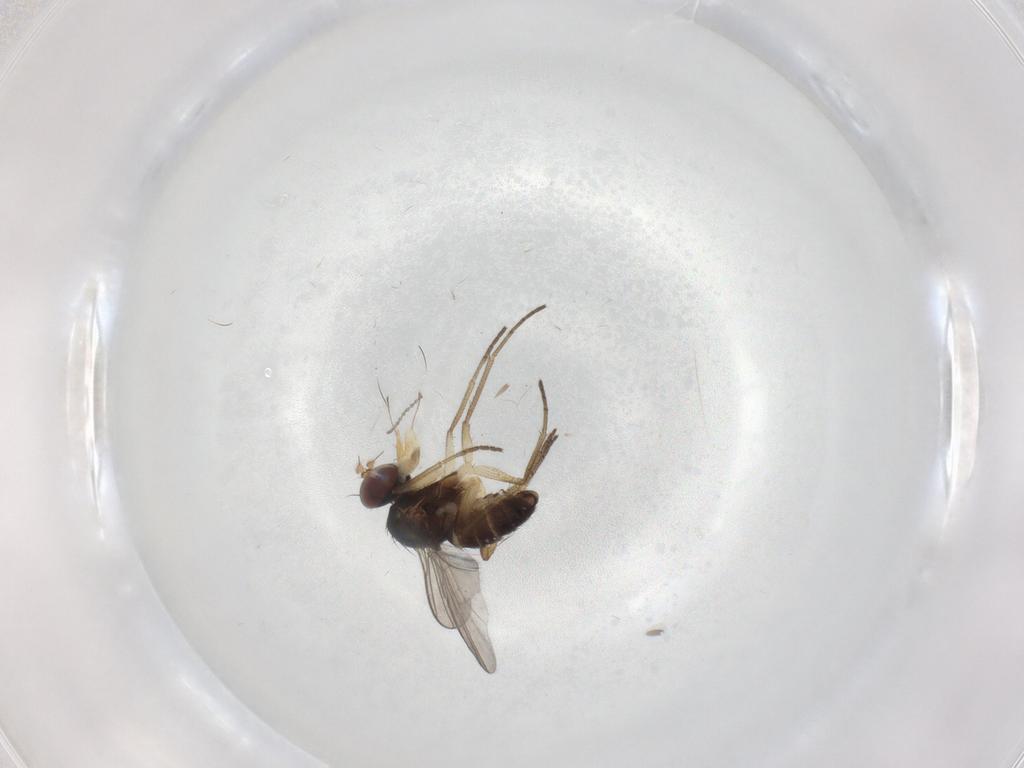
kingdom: Animalia
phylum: Arthropoda
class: Insecta
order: Diptera
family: Dolichopodidae
